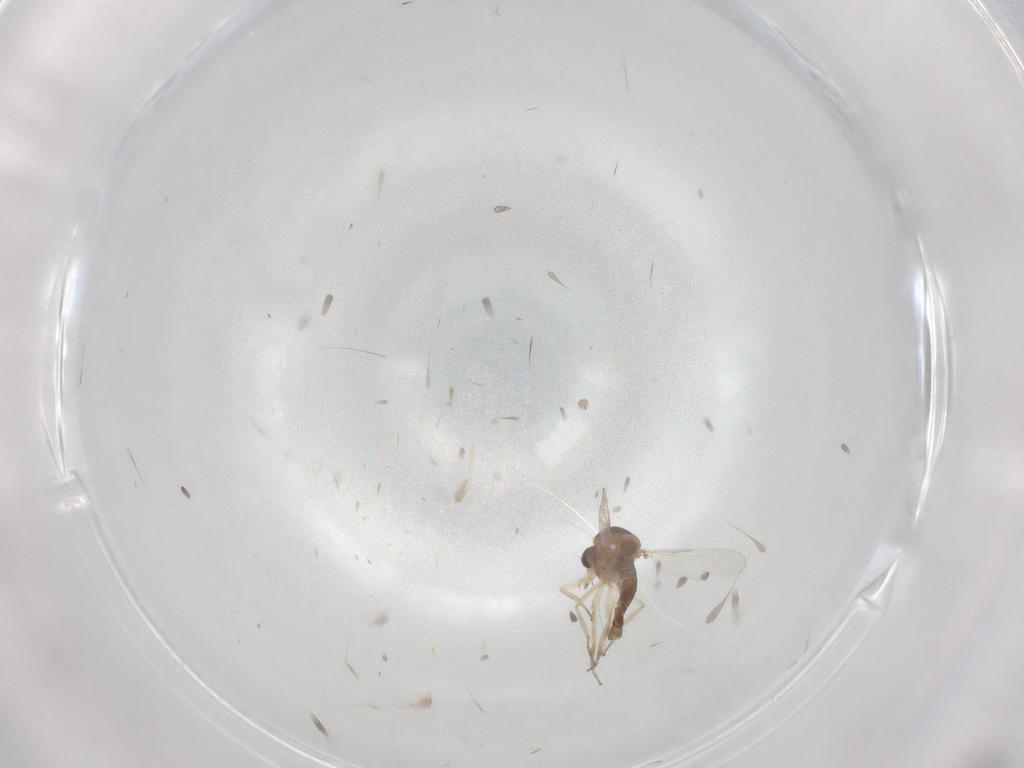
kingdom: Animalia
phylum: Arthropoda
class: Insecta
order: Diptera
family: Ceratopogonidae
